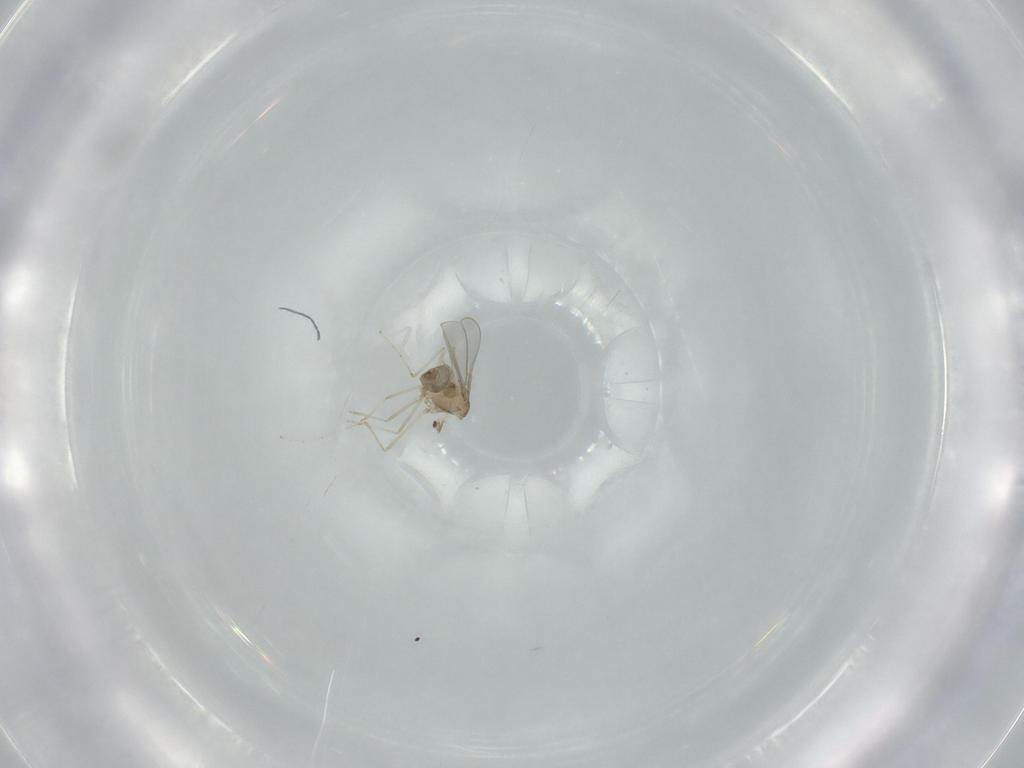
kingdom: Animalia
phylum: Arthropoda
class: Insecta
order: Diptera
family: Cecidomyiidae
